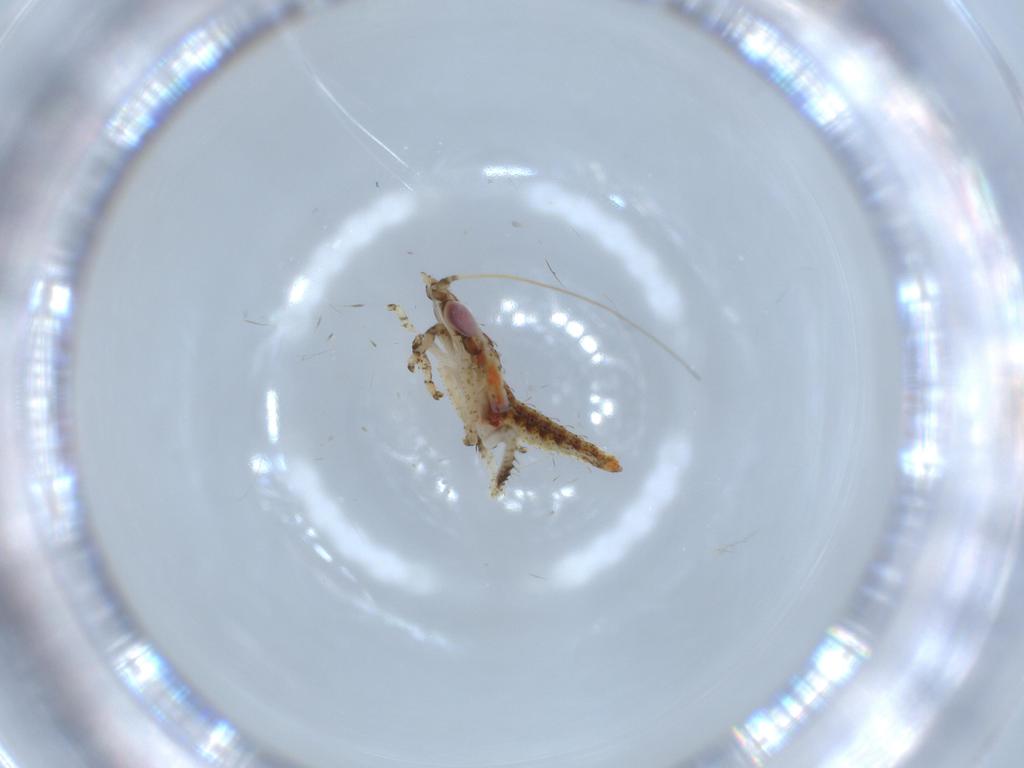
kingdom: Animalia
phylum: Arthropoda
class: Insecta
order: Hemiptera
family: Cicadellidae
